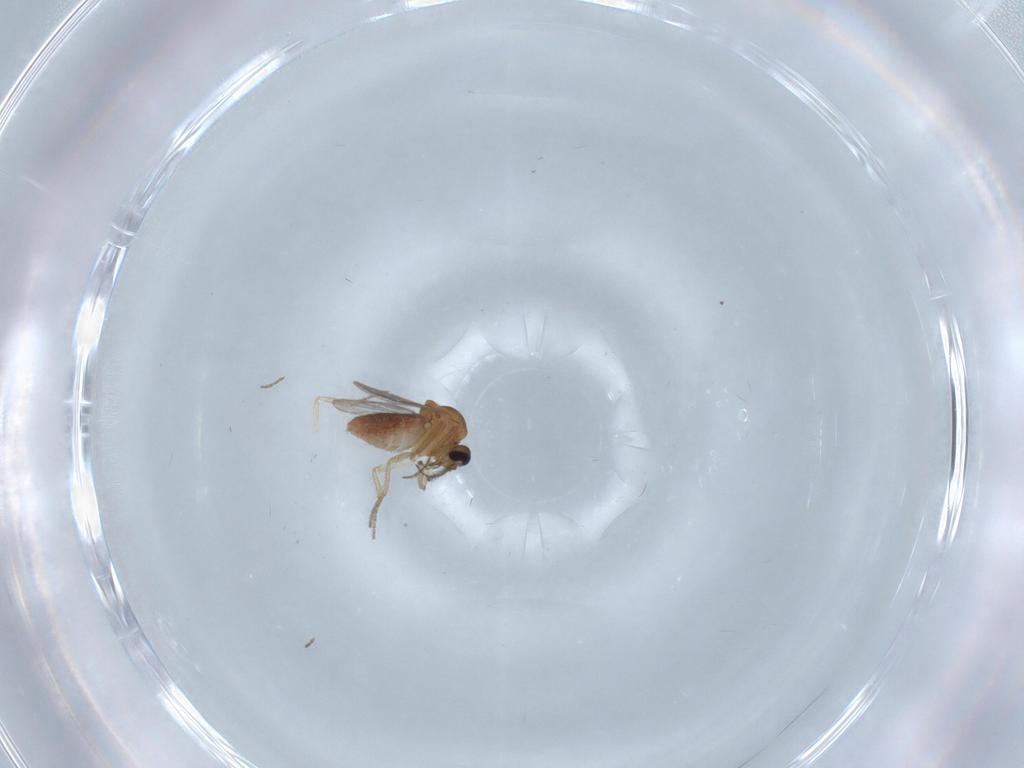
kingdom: Animalia
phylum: Arthropoda
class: Insecta
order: Diptera
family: Ceratopogonidae
